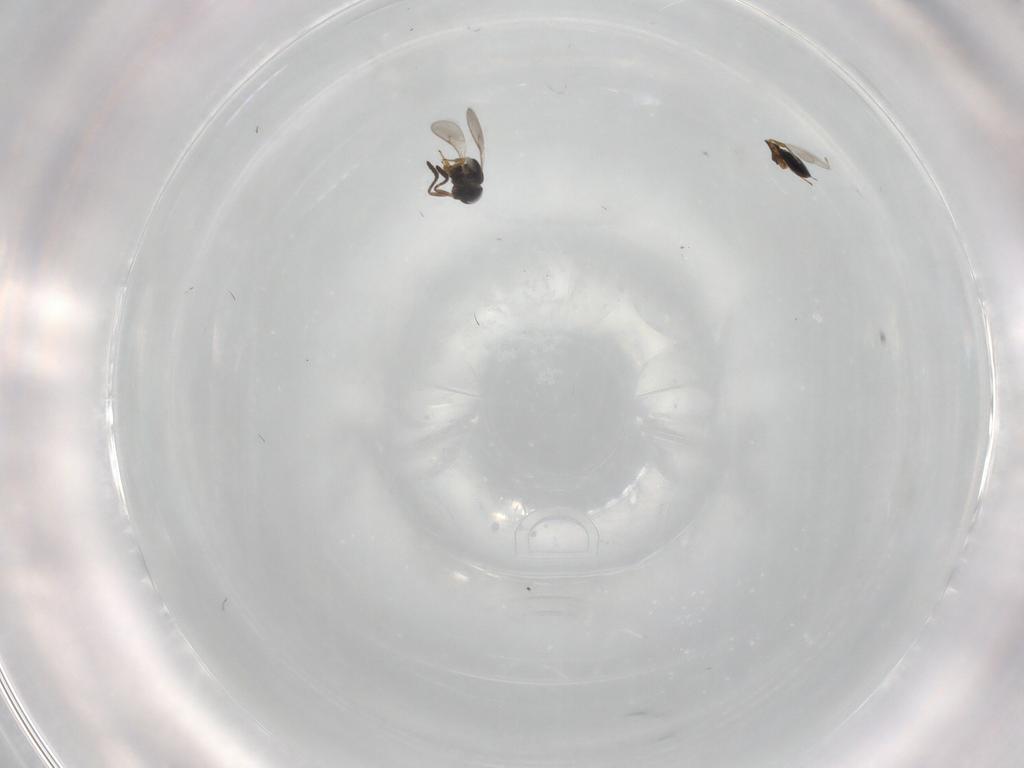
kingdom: Animalia
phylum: Arthropoda
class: Insecta
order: Hymenoptera
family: Scelionidae
